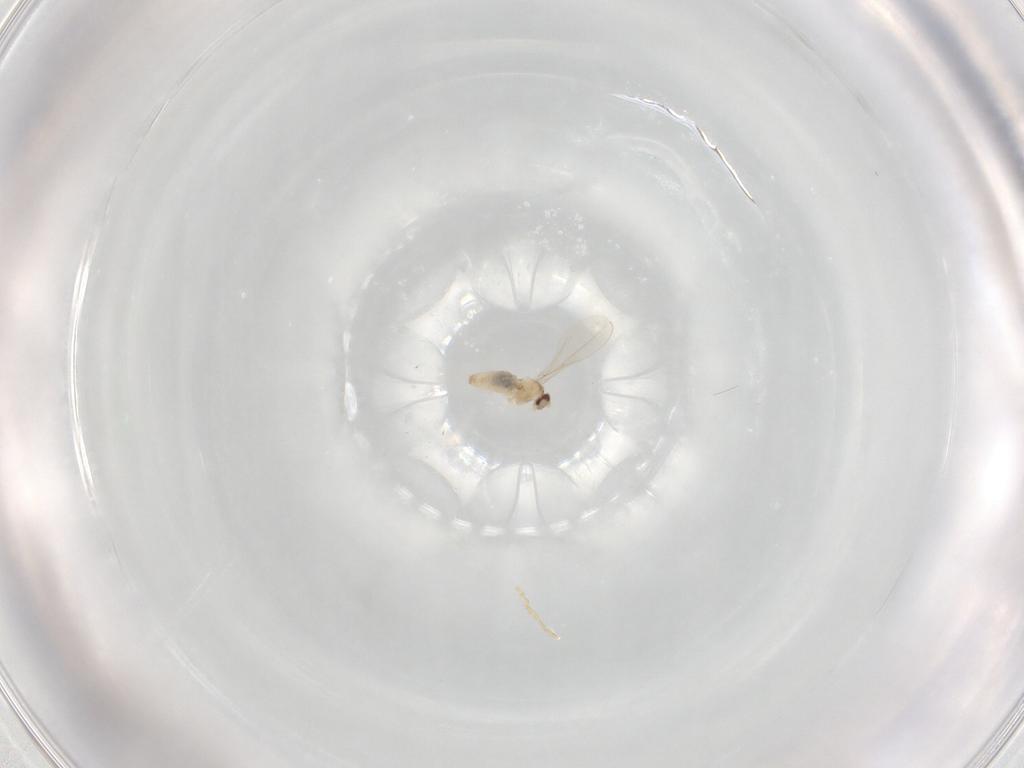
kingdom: Animalia
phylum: Arthropoda
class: Insecta
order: Diptera
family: Cecidomyiidae
